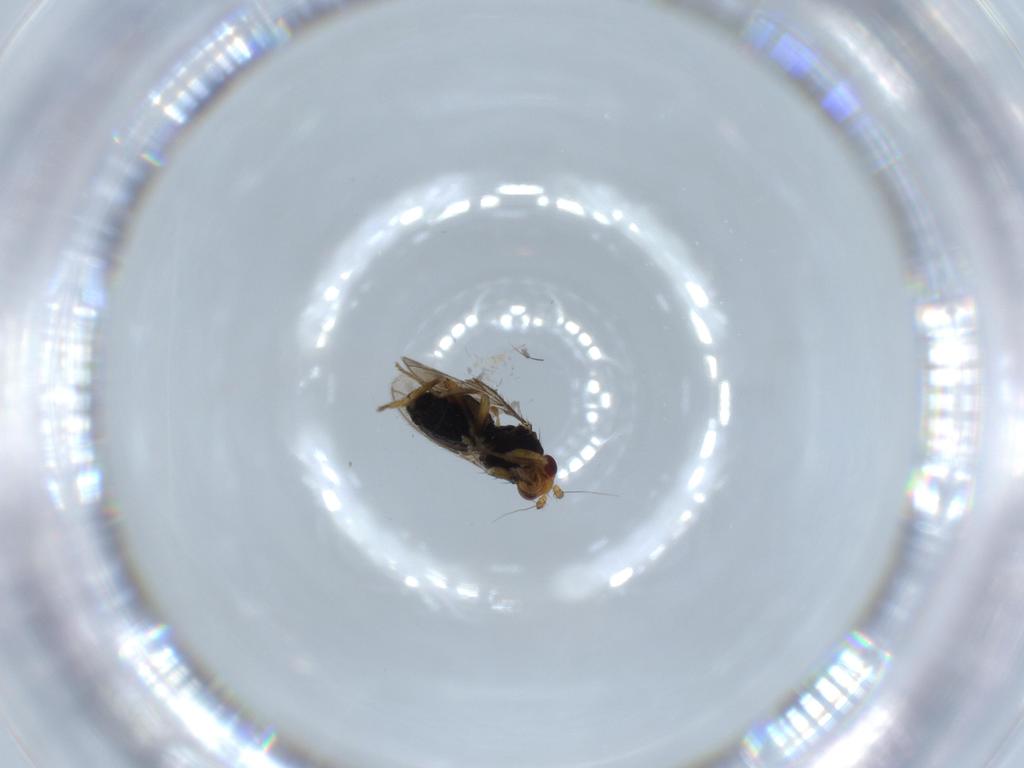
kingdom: Animalia
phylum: Arthropoda
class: Insecta
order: Diptera
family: Sphaeroceridae
